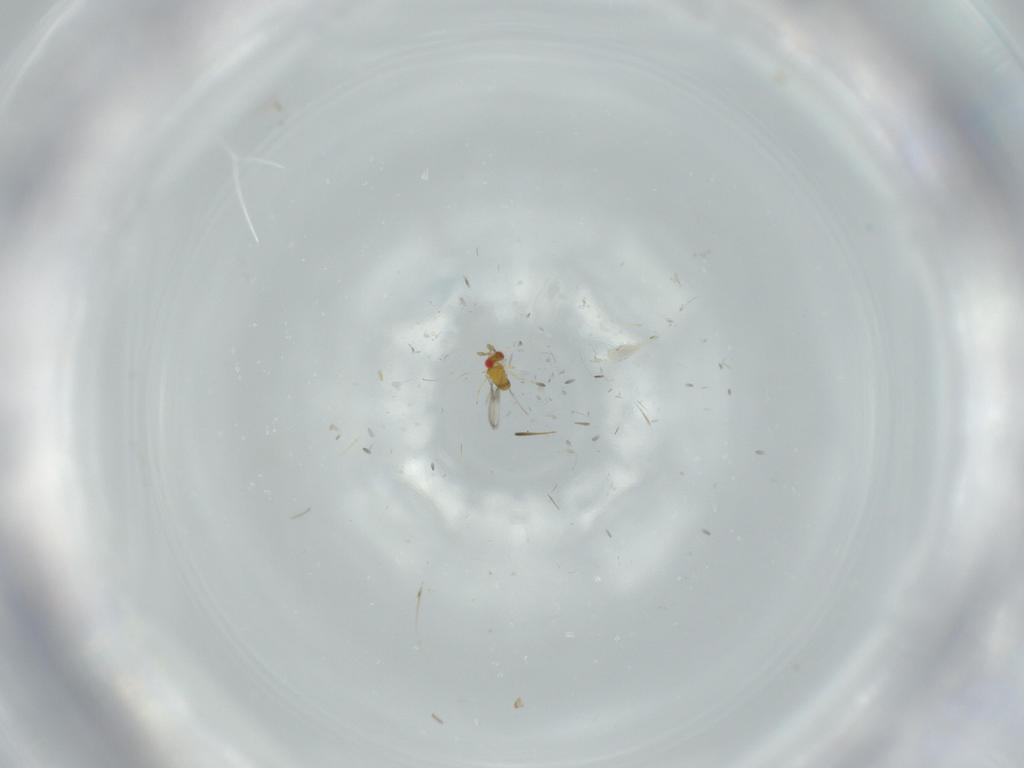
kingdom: Animalia
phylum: Arthropoda
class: Insecta
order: Hymenoptera
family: Trichogrammatidae
